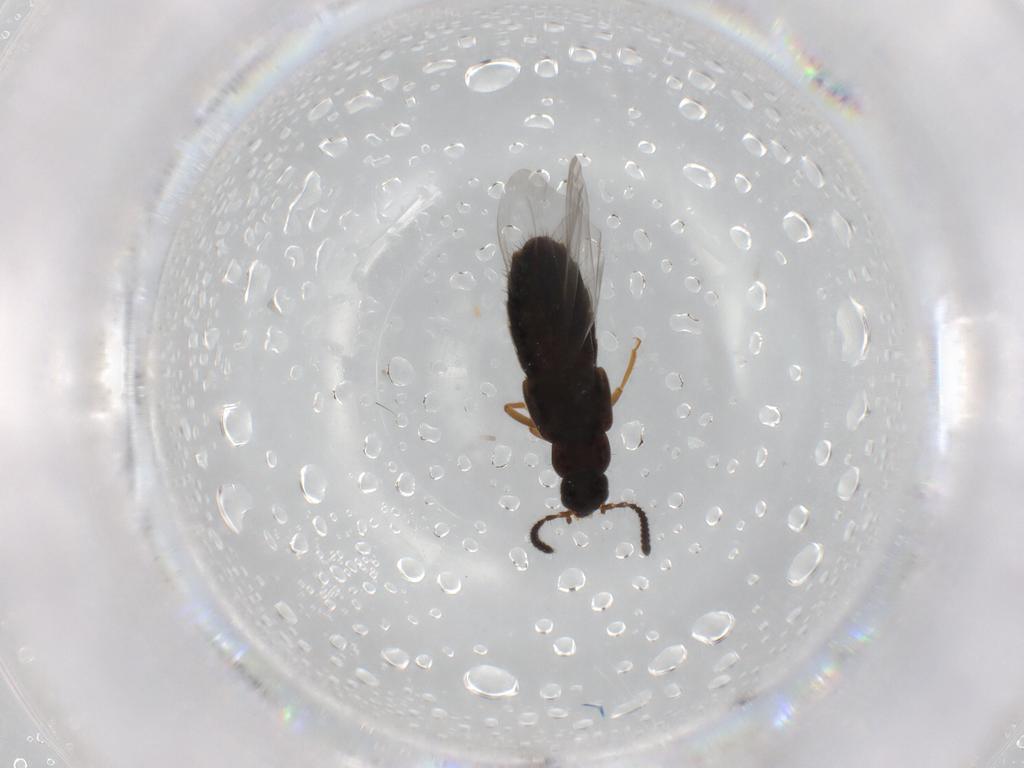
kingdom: Animalia
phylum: Arthropoda
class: Insecta
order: Coleoptera
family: Staphylinidae
